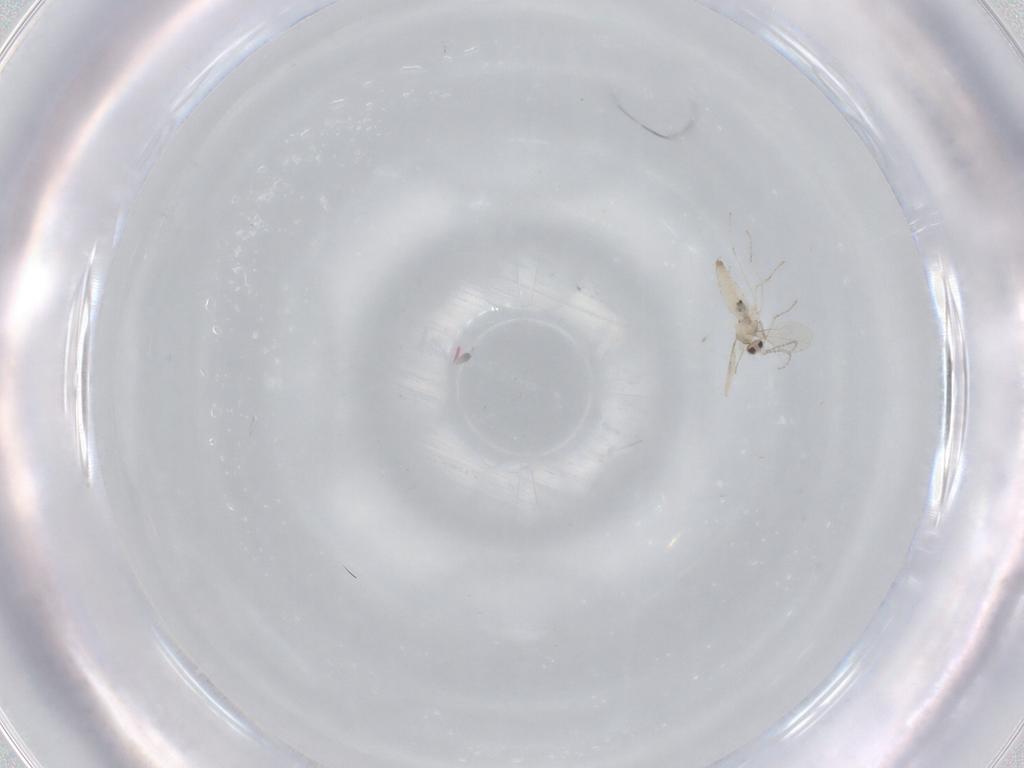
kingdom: Animalia
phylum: Arthropoda
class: Insecta
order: Diptera
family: Cecidomyiidae
